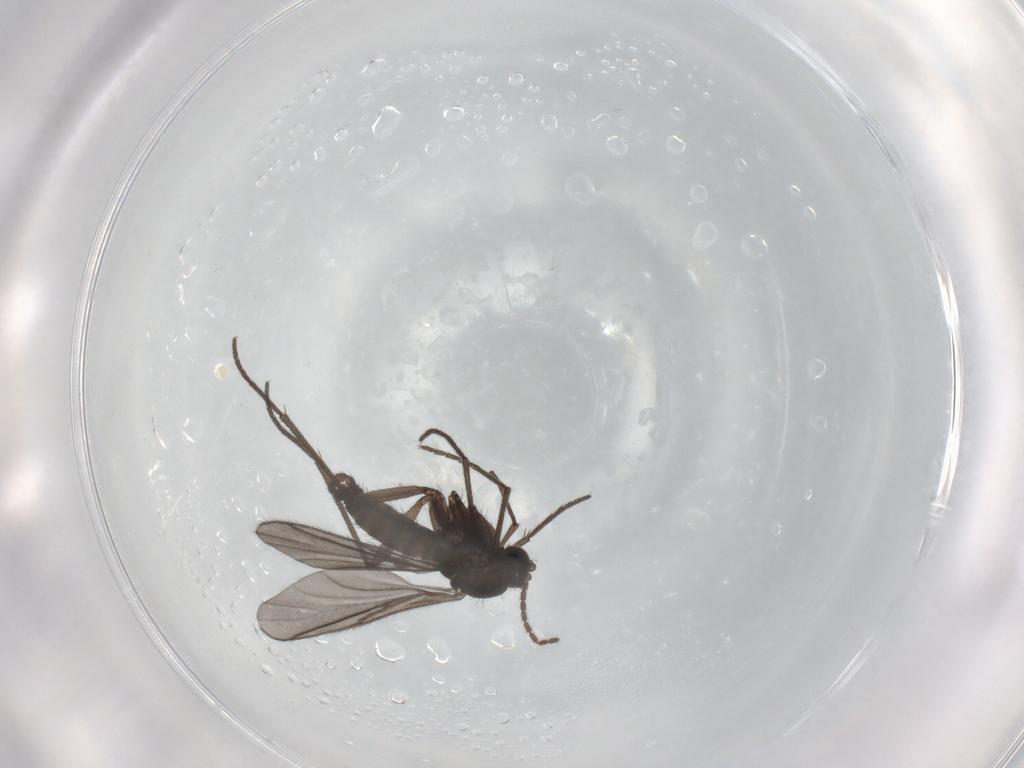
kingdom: Animalia
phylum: Arthropoda
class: Insecta
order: Diptera
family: Sciaridae
